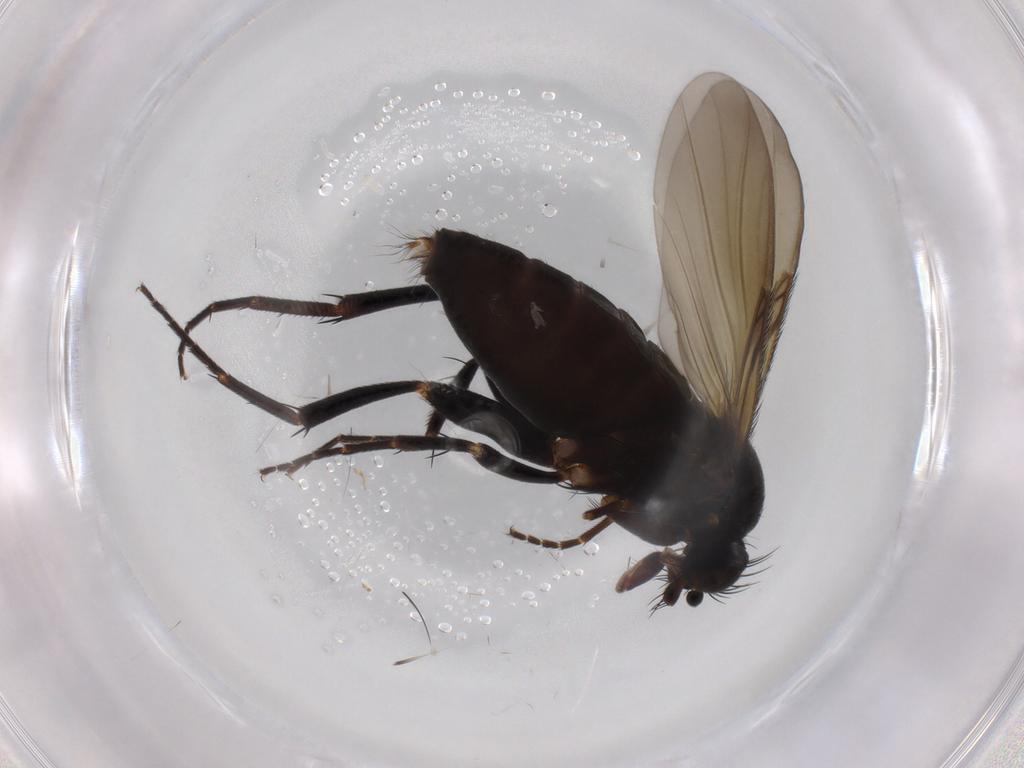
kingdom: Animalia
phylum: Arthropoda
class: Insecta
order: Diptera
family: Phoridae
